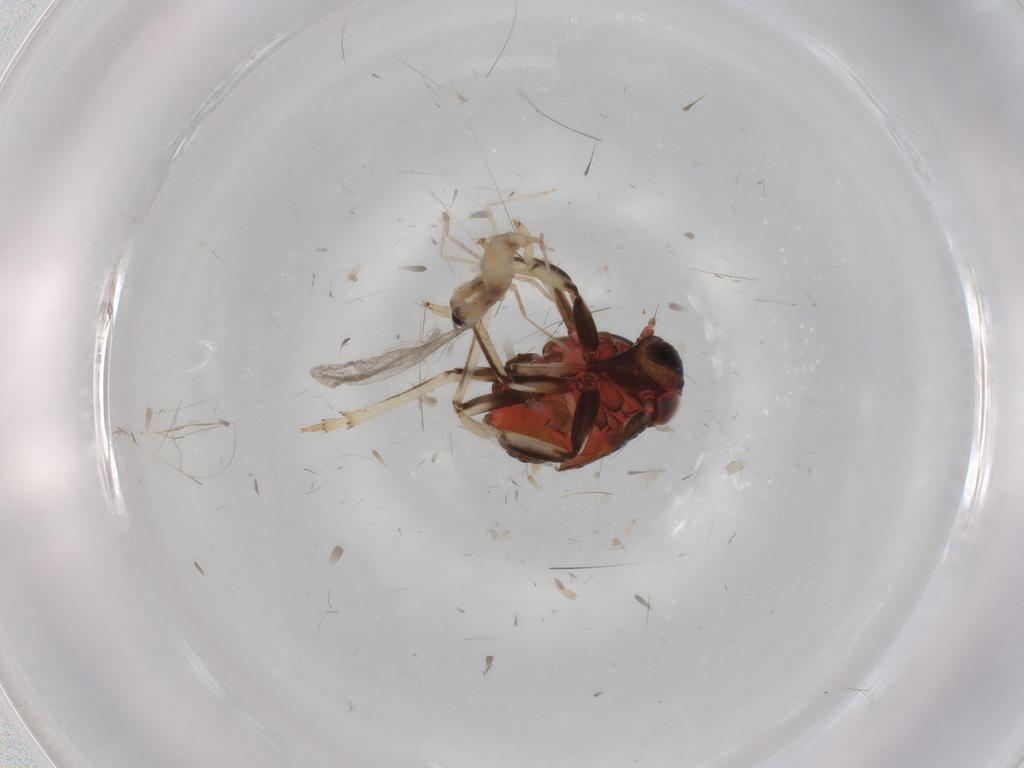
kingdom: Animalia
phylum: Arthropoda
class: Insecta
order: Diptera
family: Cecidomyiidae
